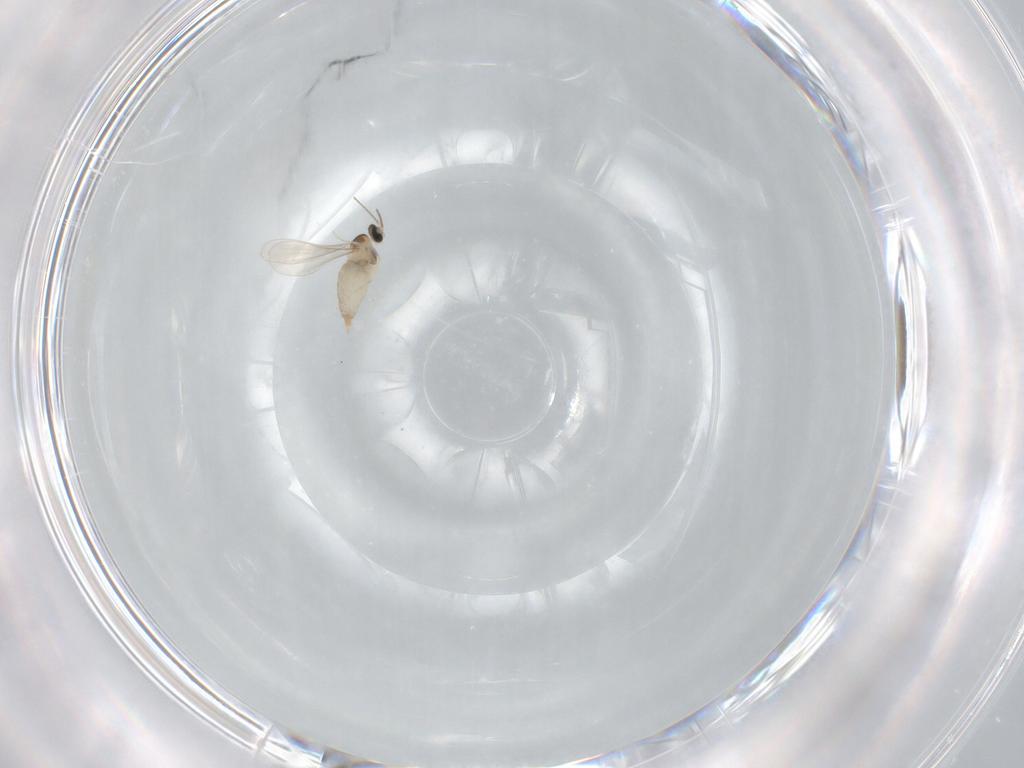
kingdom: Animalia
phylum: Arthropoda
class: Insecta
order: Diptera
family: Cecidomyiidae
